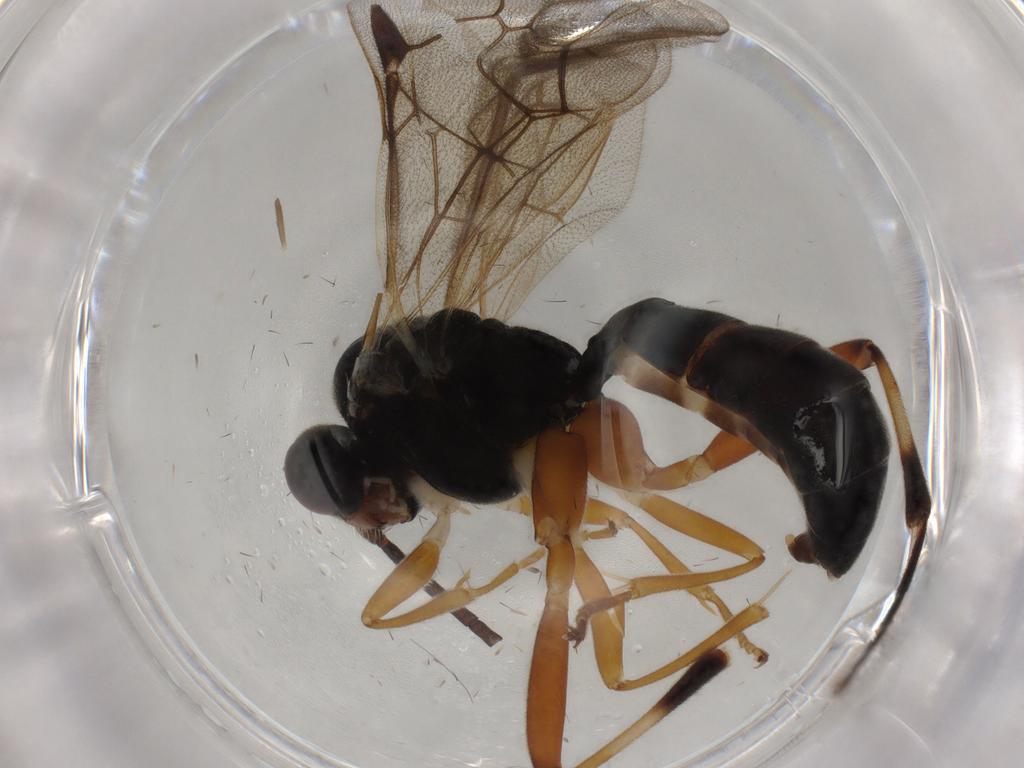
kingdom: Animalia
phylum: Arthropoda
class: Insecta
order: Hymenoptera
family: Ichneumonidae
